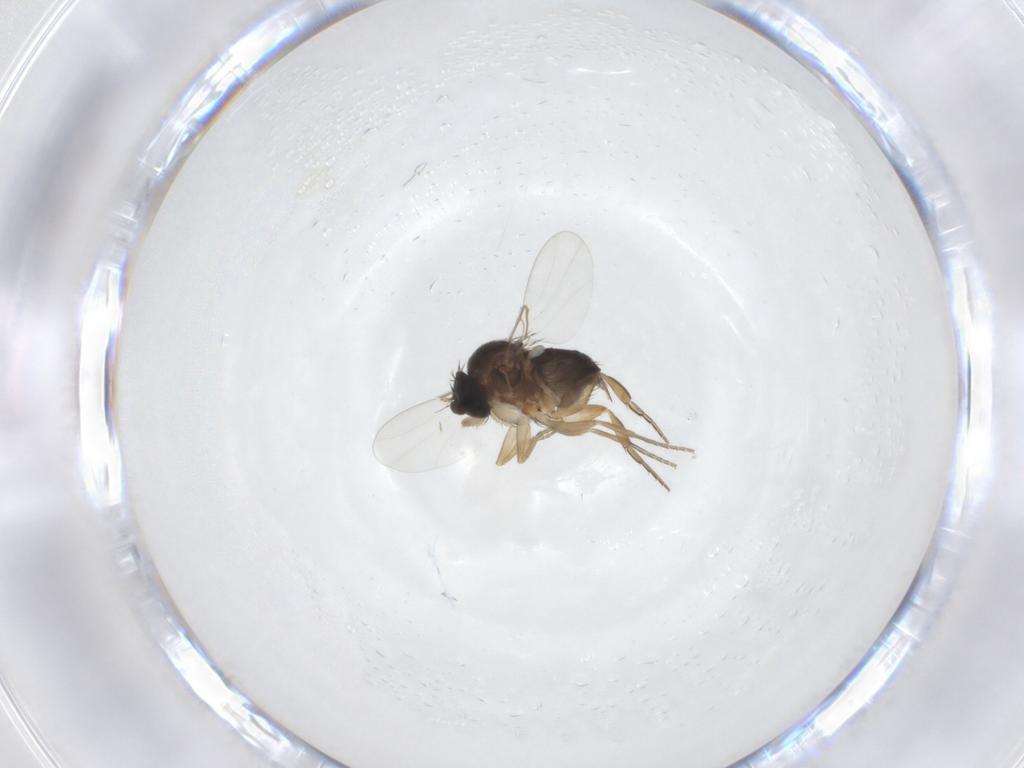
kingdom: Animalia
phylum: Arthropoda
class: Insecta
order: Diptera
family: Phoridae
